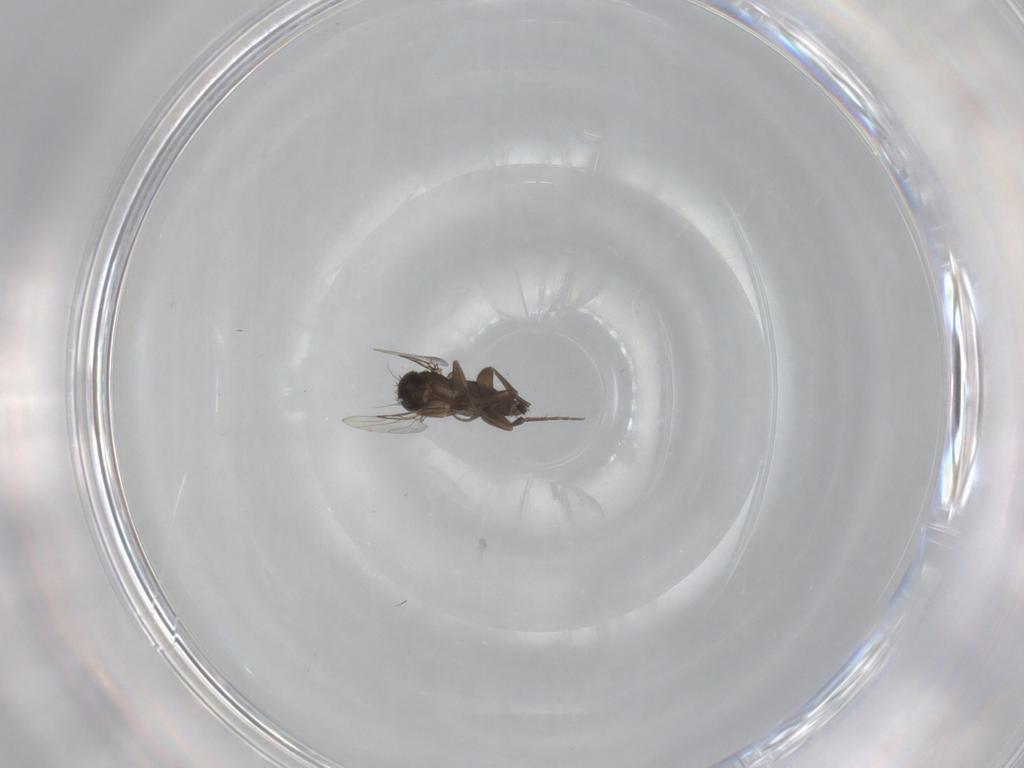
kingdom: Animalia
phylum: Arthropoda
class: Insecta
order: Diptera
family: Phoridae
